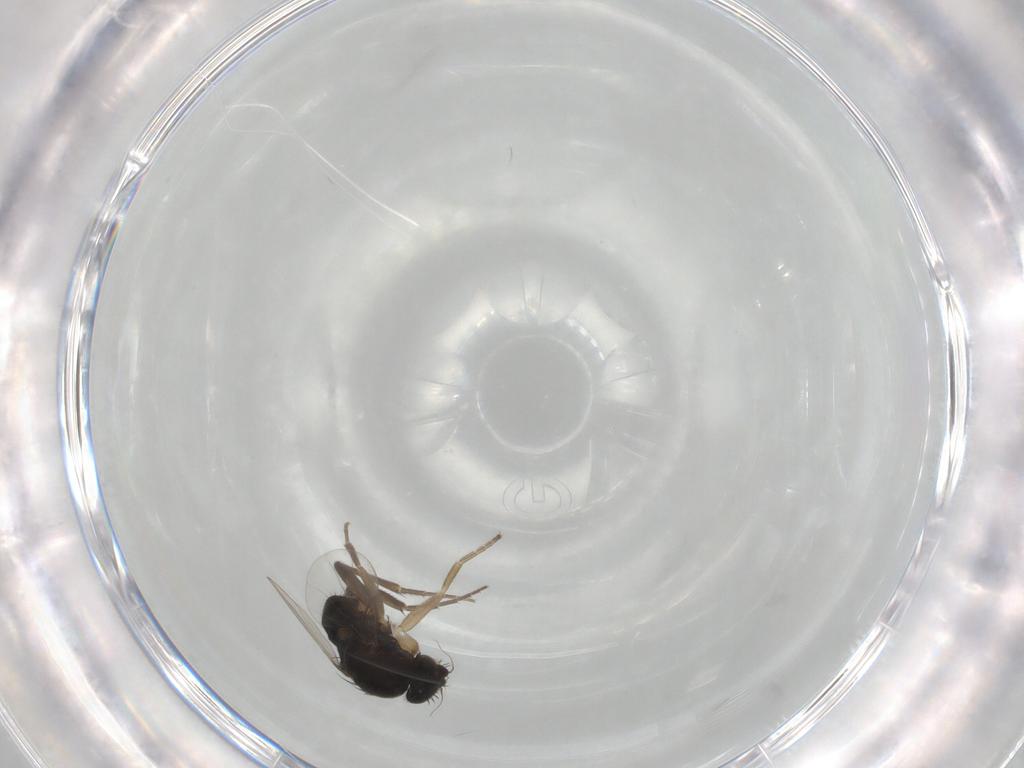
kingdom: Animalia
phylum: Arthropoda
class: Insecta
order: Diptera
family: Phoridae
